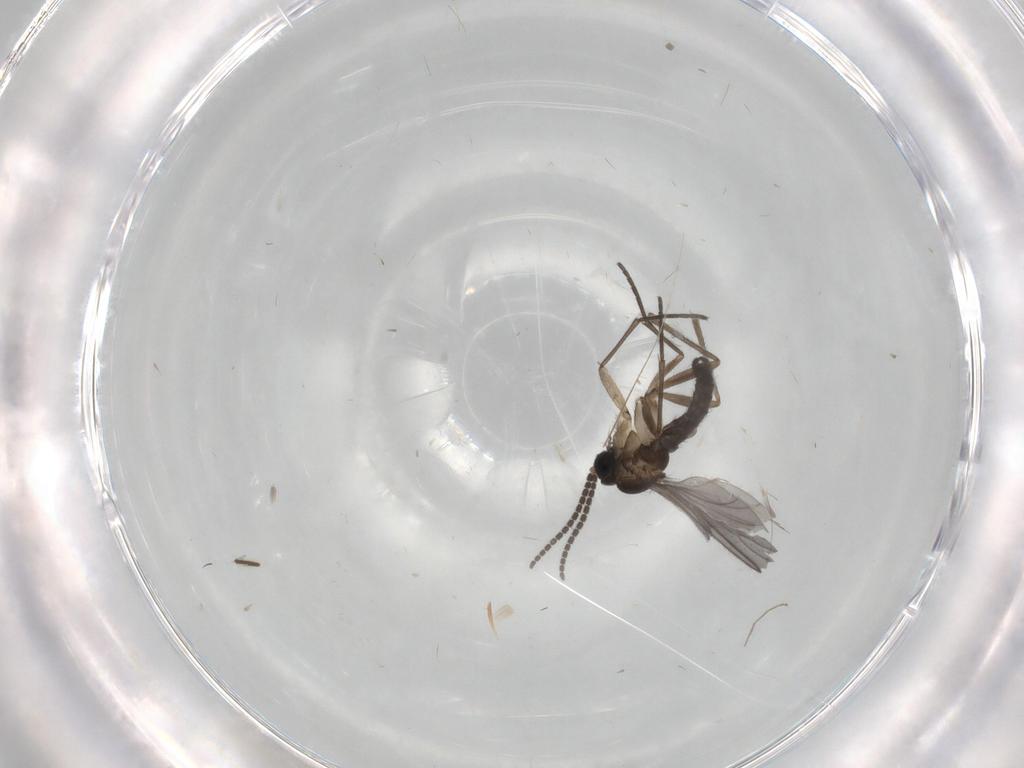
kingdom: Animalia
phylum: Arthropoda
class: Insecta
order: Diptera
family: Sciaridae
